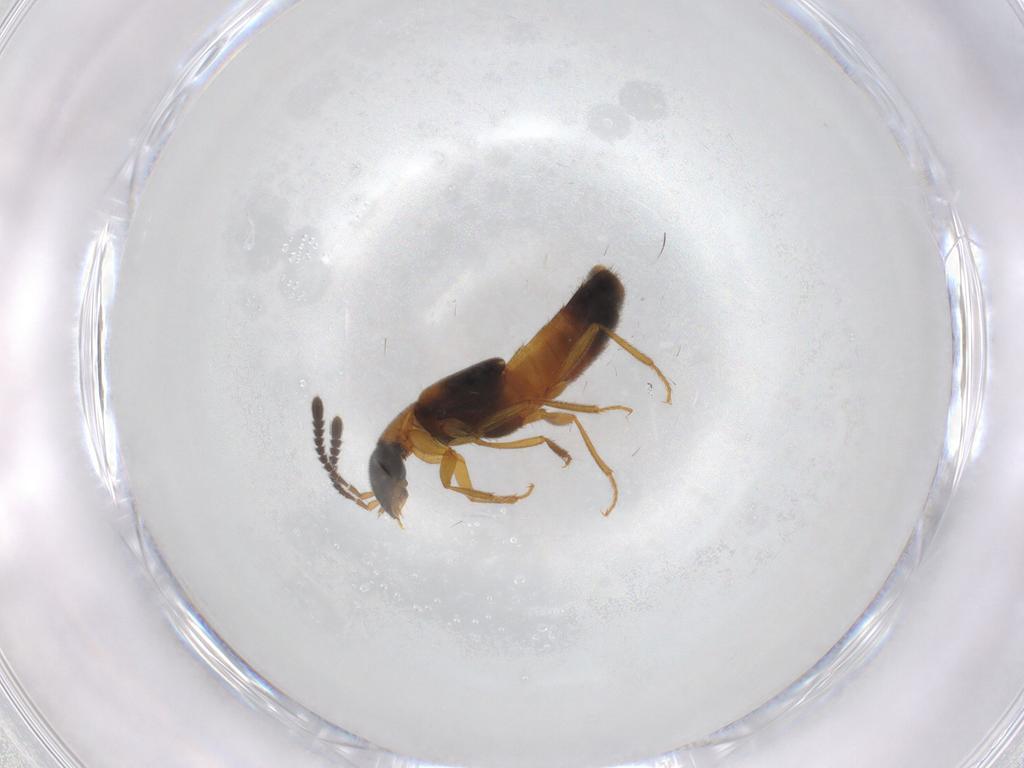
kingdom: Animalia
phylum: Arthropoda
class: Insecta
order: Coleoptera
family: Staphylinidae
